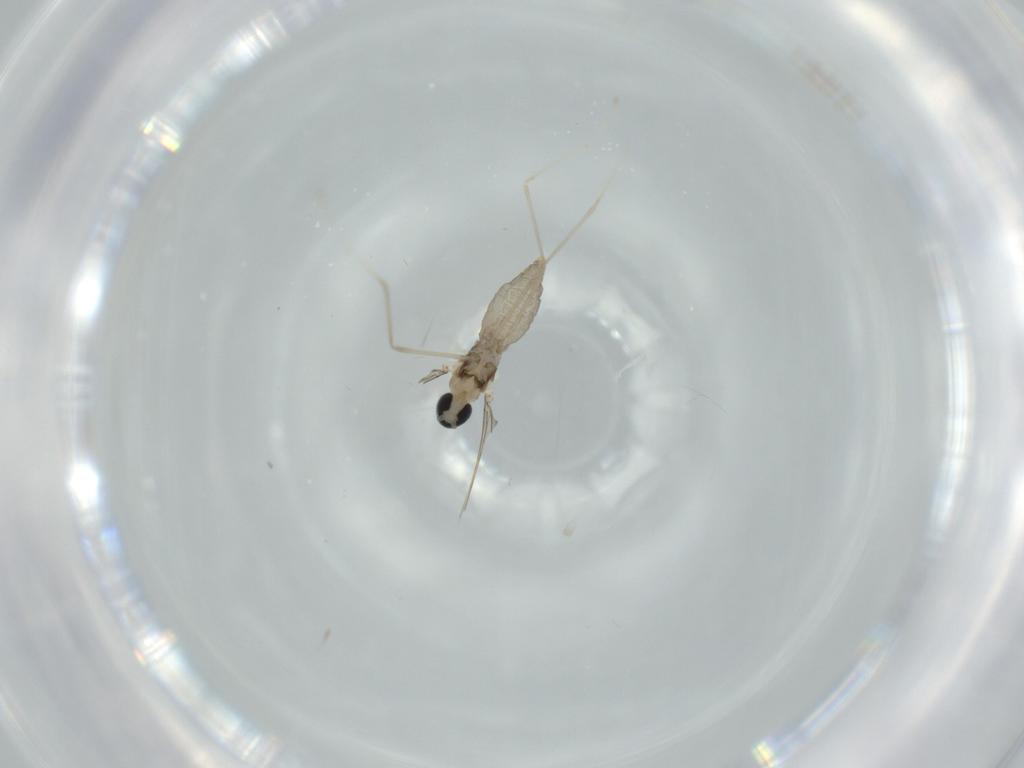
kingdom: Animalia
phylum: Arthropoda
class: Insecta
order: Diptera
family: Cecidomyiidae
